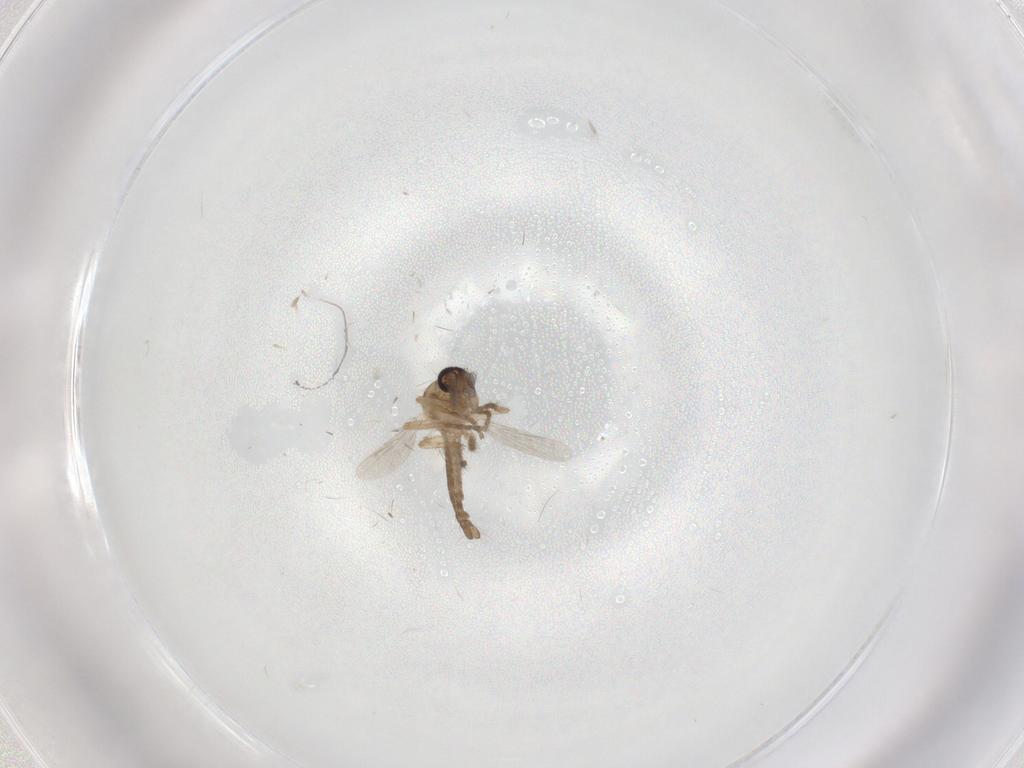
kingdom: Animalia
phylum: Arthropoda
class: Insecta
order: Diptera
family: Ceratopogonidae
